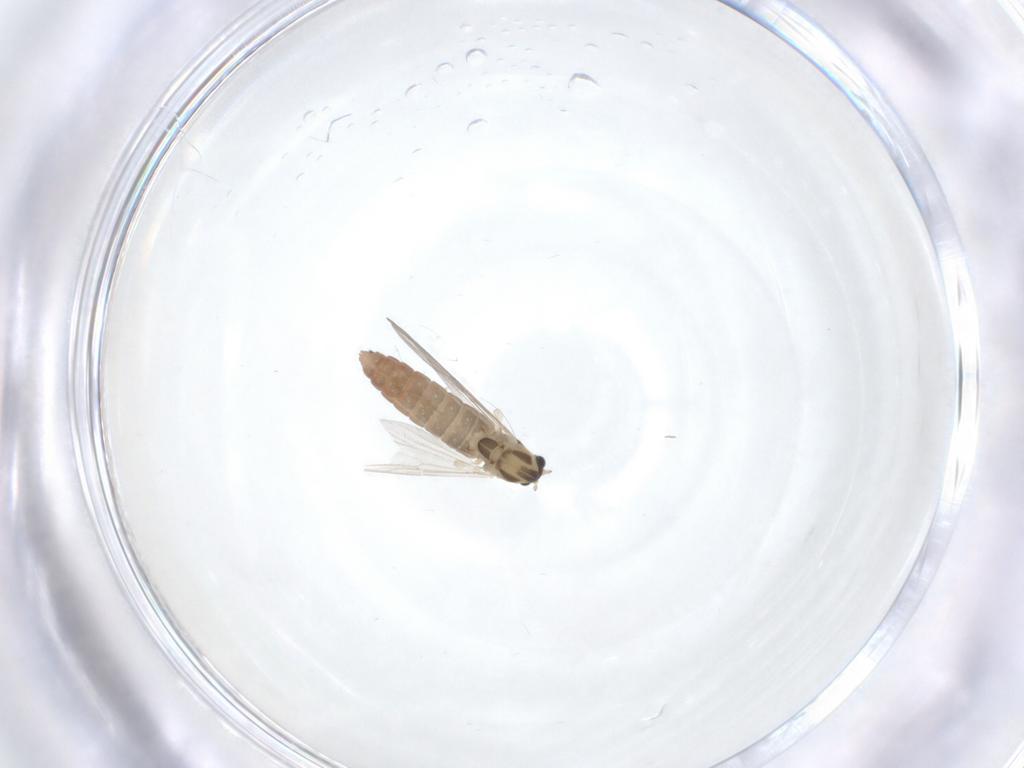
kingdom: Animalia
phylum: Arthropoda
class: Insecta
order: Diptera
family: Chironomidae
